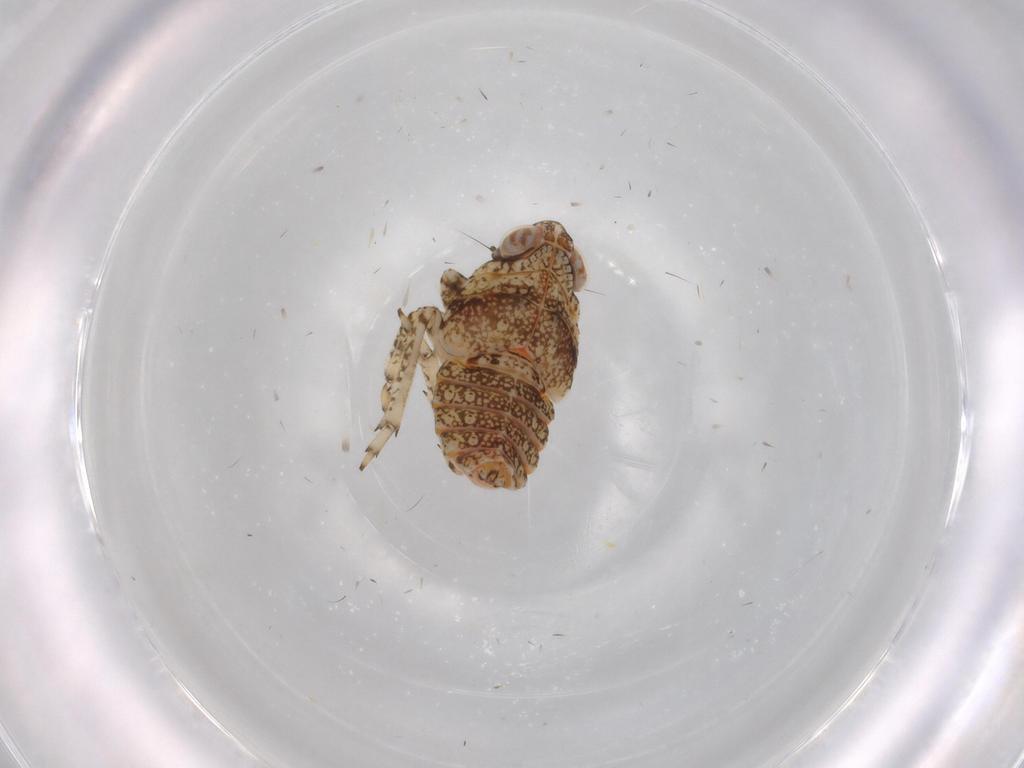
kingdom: Animalia
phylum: Arthropoda
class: Collembola
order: Symphypleona
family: Bourletiellidae
